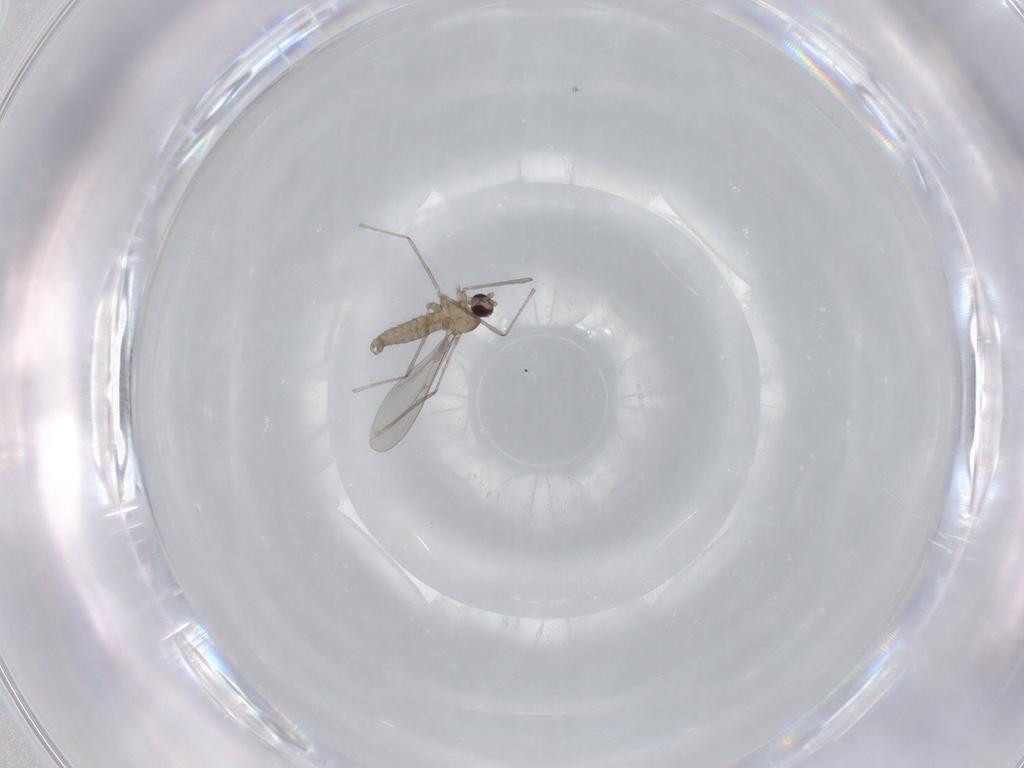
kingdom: Animalia
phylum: Arthropoda
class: Insecta
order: Diptera
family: Cecidomyiidae
